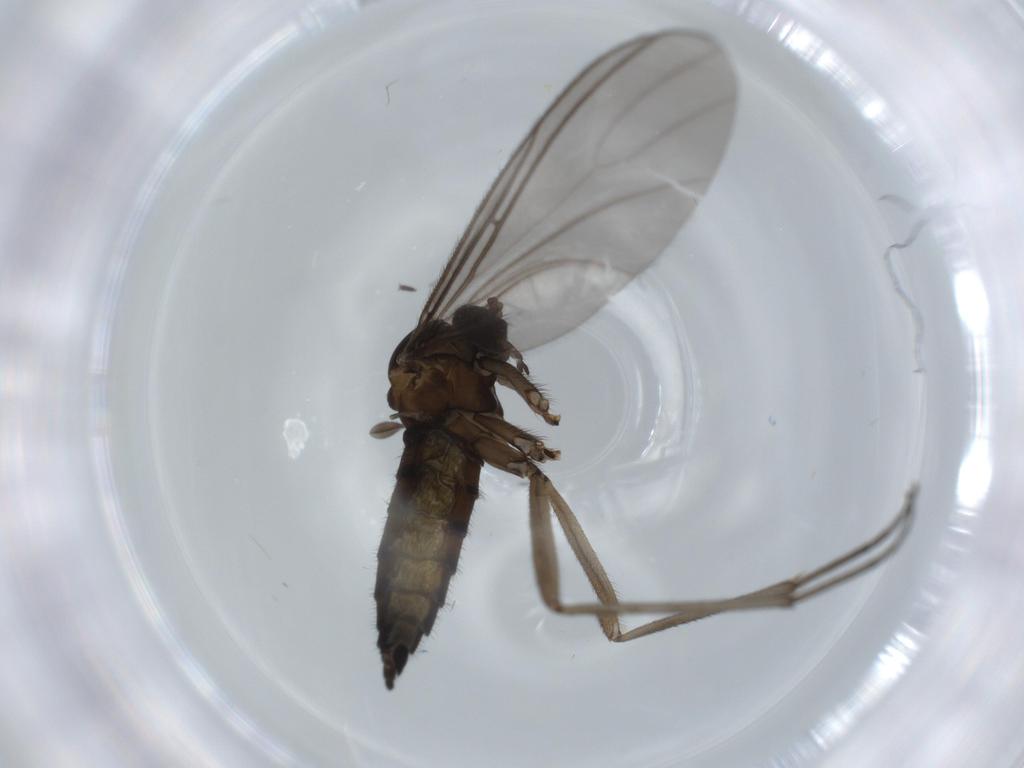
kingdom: Animalia
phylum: Arthropoda
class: Insecta
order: Diptera
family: Sciaridae
